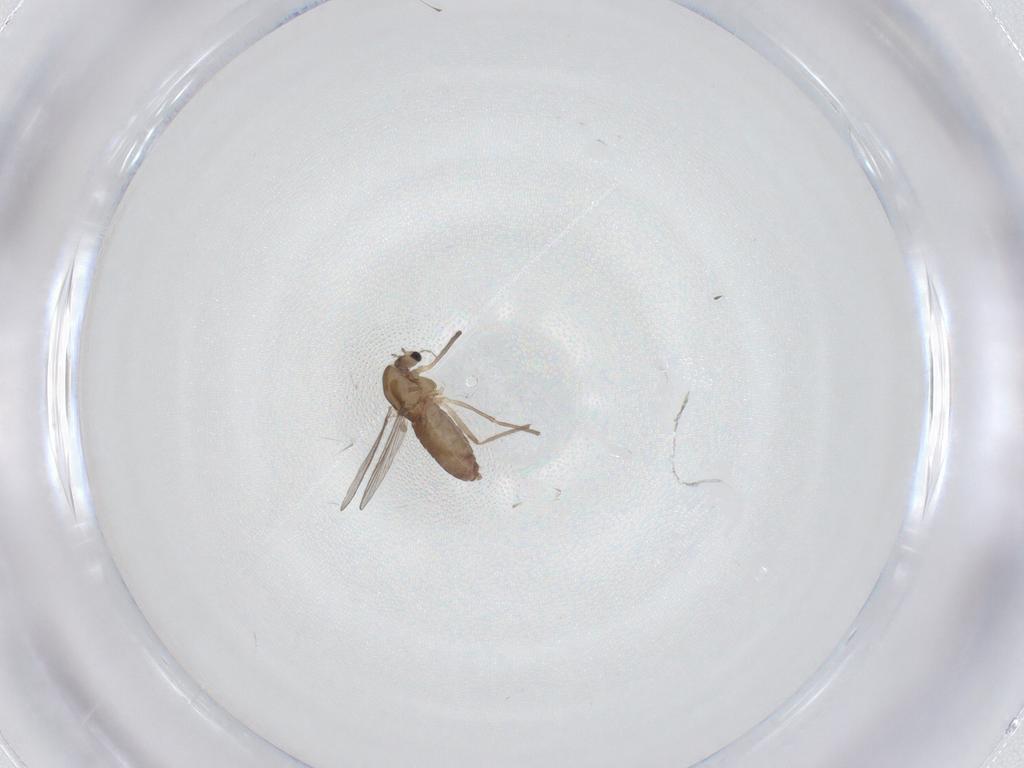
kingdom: Animalia
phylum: Arthropoda
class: Insecta
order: Diptera
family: Chironomidae
